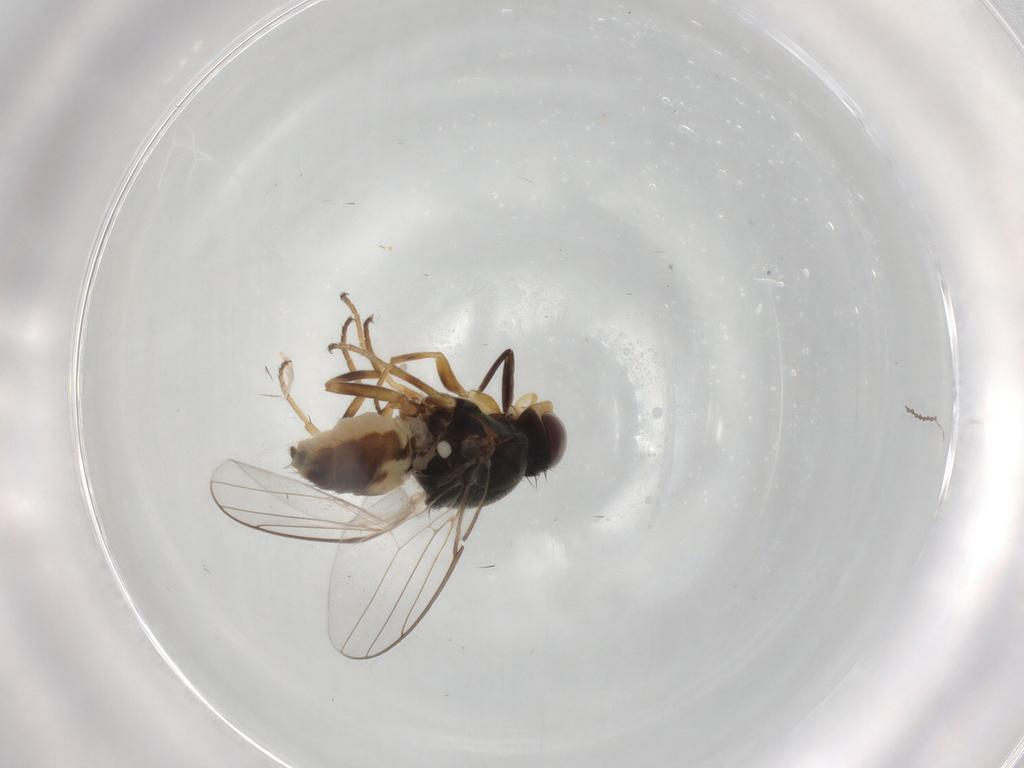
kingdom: Animalia
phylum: Arthropoda
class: Insecta
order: Diptera
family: Chloropidae
